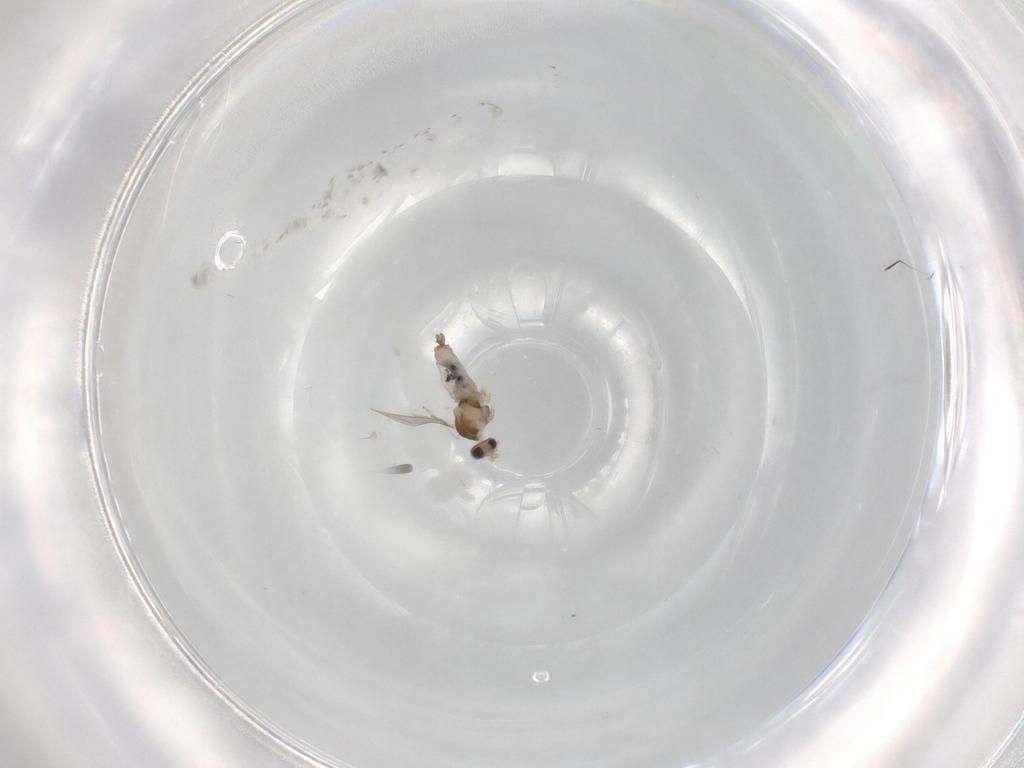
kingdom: Animalia
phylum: Arthropoda
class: Insecta
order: Diptera
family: Cecidomyiidae
